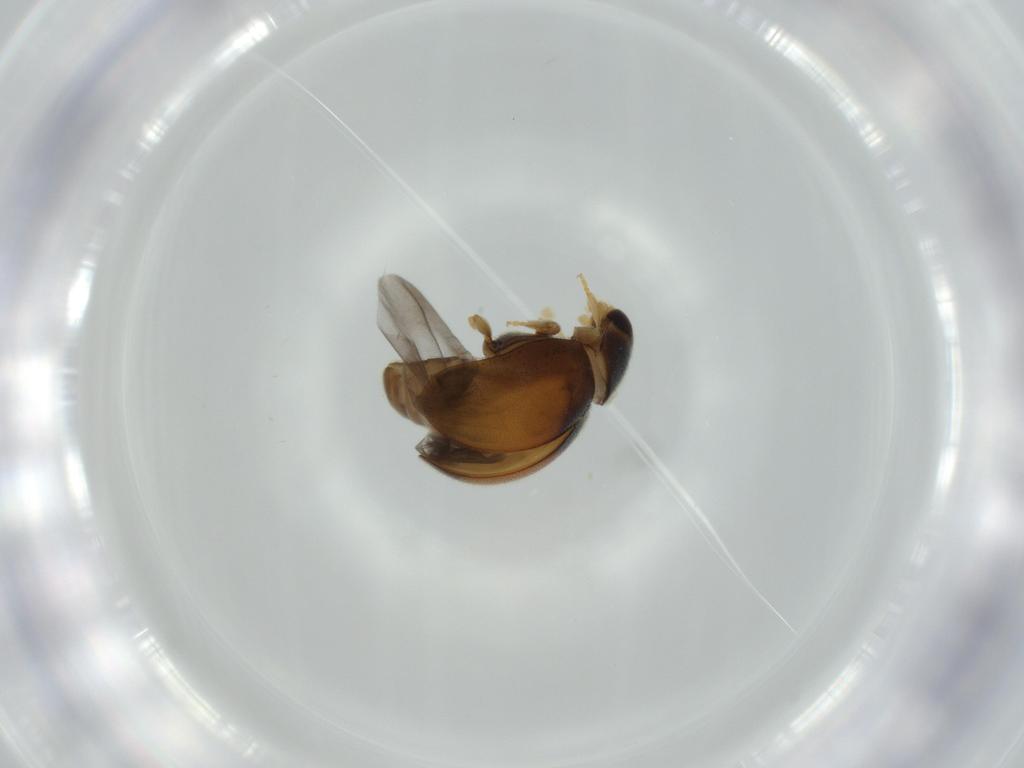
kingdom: Animalia
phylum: Arthropoda
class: Insecta
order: Coleoptera
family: Coccinellidae
